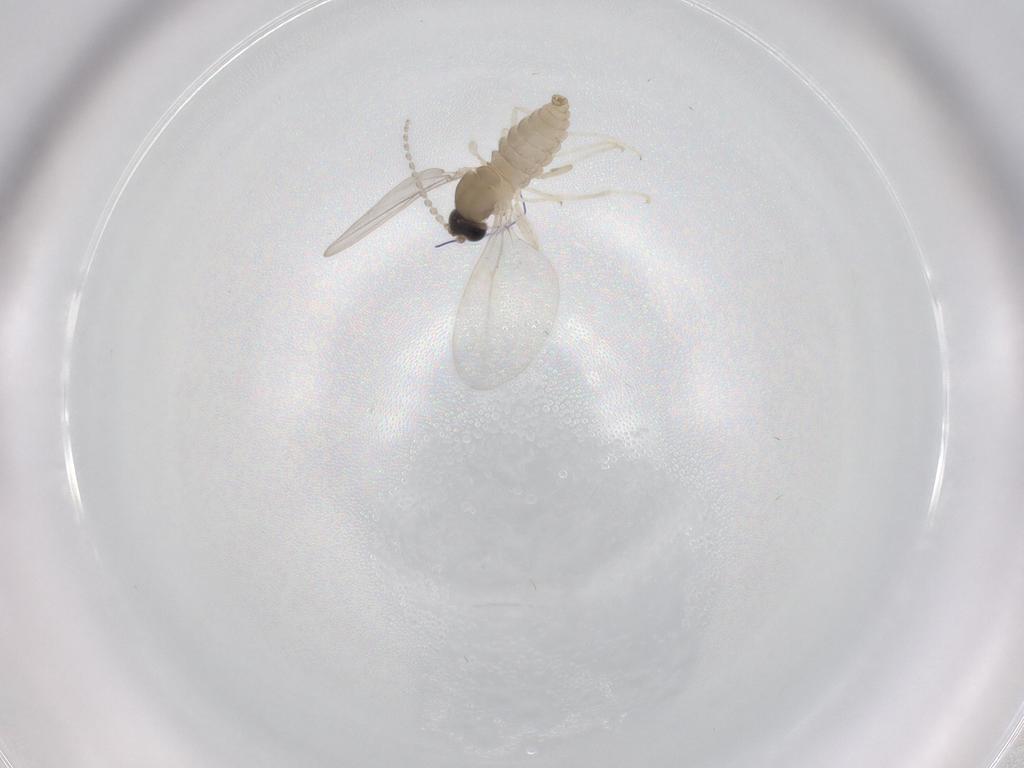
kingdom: Animalia
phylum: Arthropoda
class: Insecta
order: Diptera
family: Cecidomyiidae
